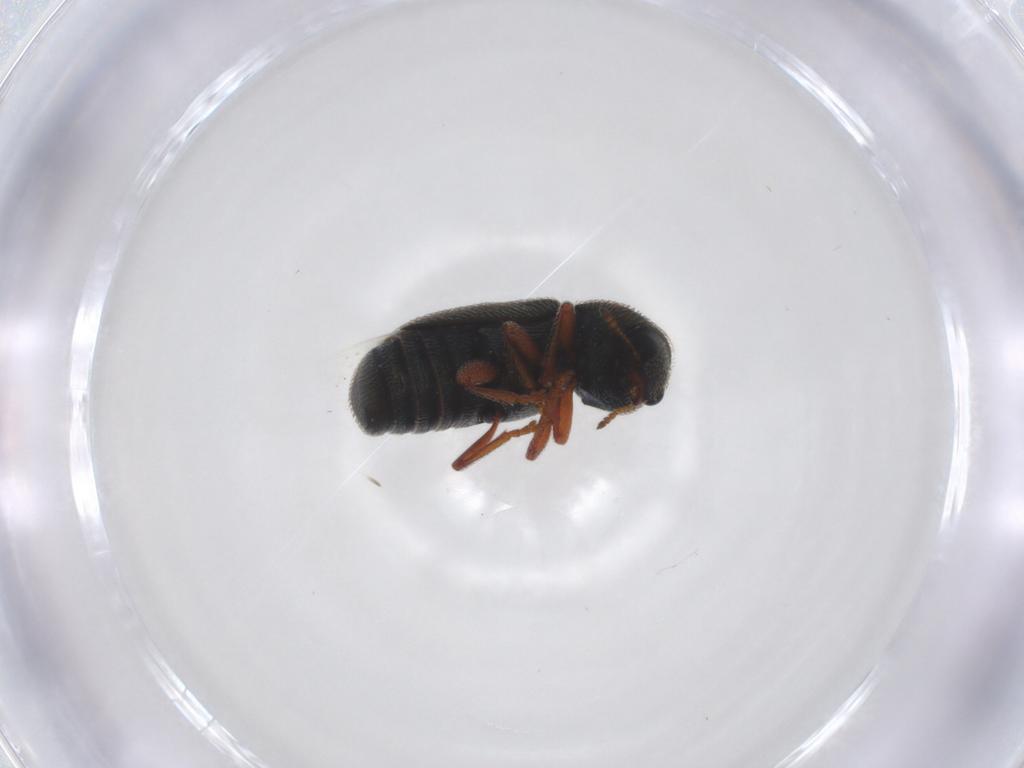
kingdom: Animalia
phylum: Arthropoda
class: Insecta
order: Coleoptera
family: Anthribidae
